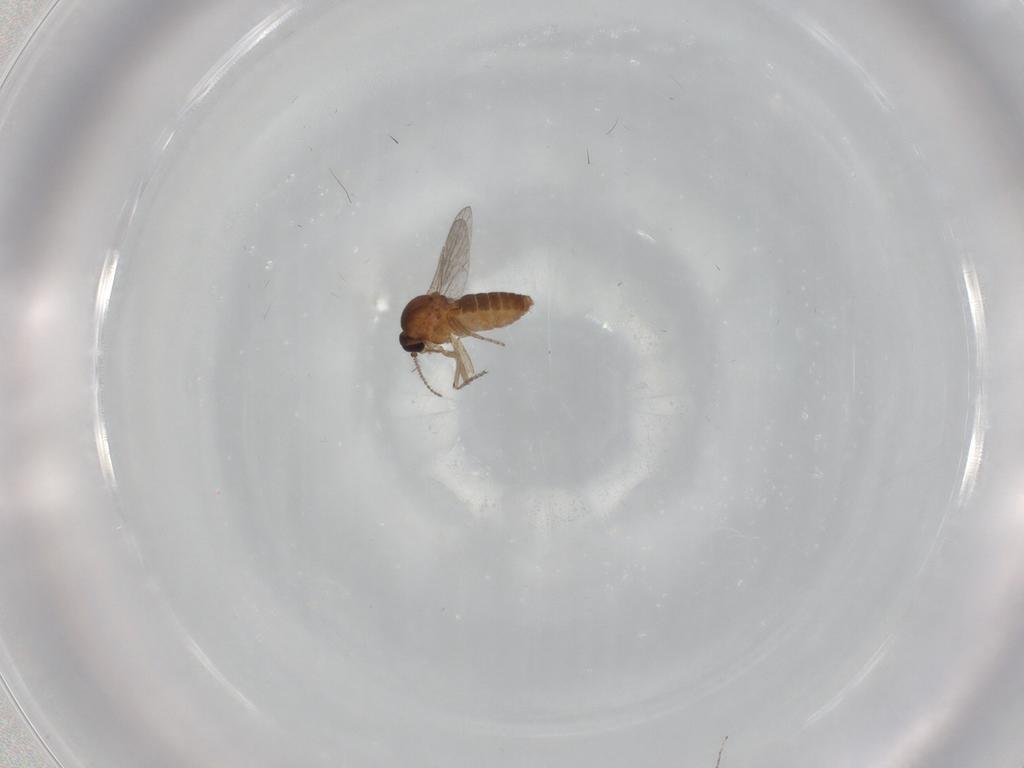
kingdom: Animalia
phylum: Arthropoda
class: Insecta
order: Diptera
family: Ceratopogonidae
